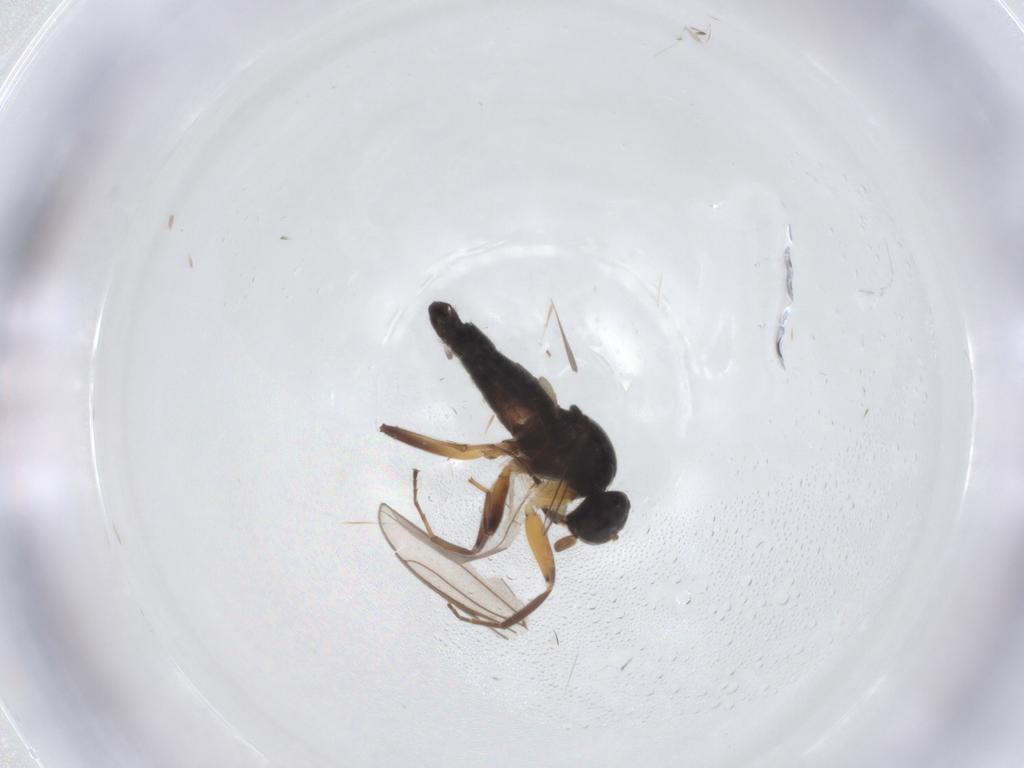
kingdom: Animalia
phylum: Arthropoda
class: Insecta
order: Diptera
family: Hybotidae
